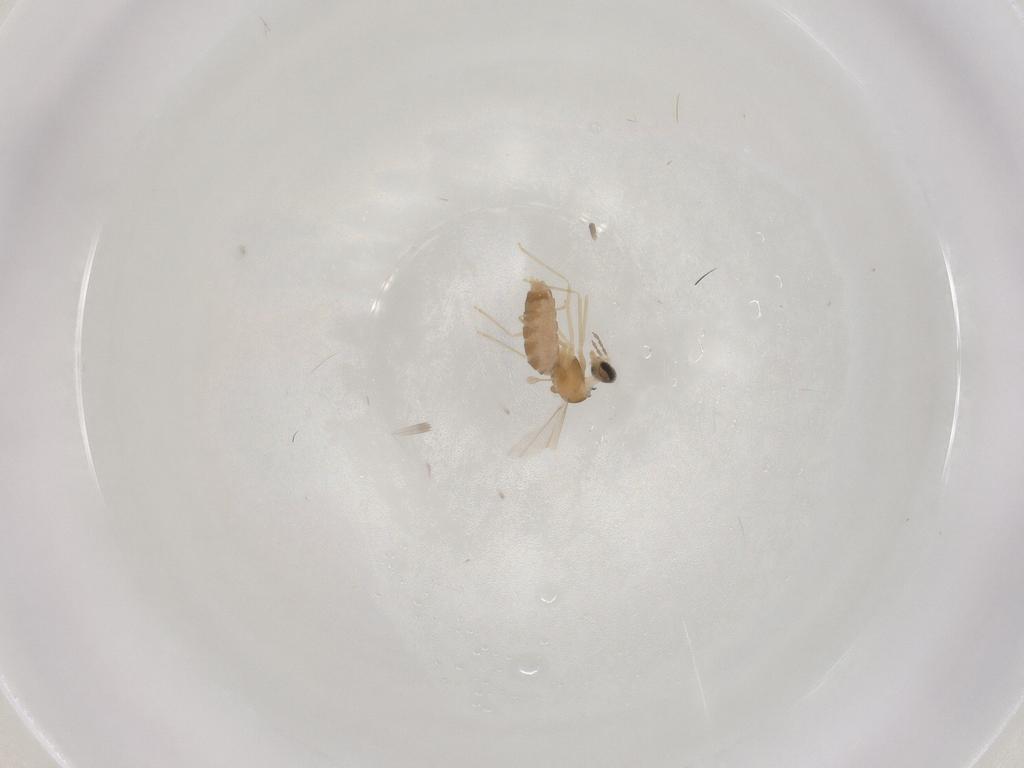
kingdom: Animalia
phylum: Arthropoda
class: Insecta
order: Diptera
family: Cecidomyiidae
